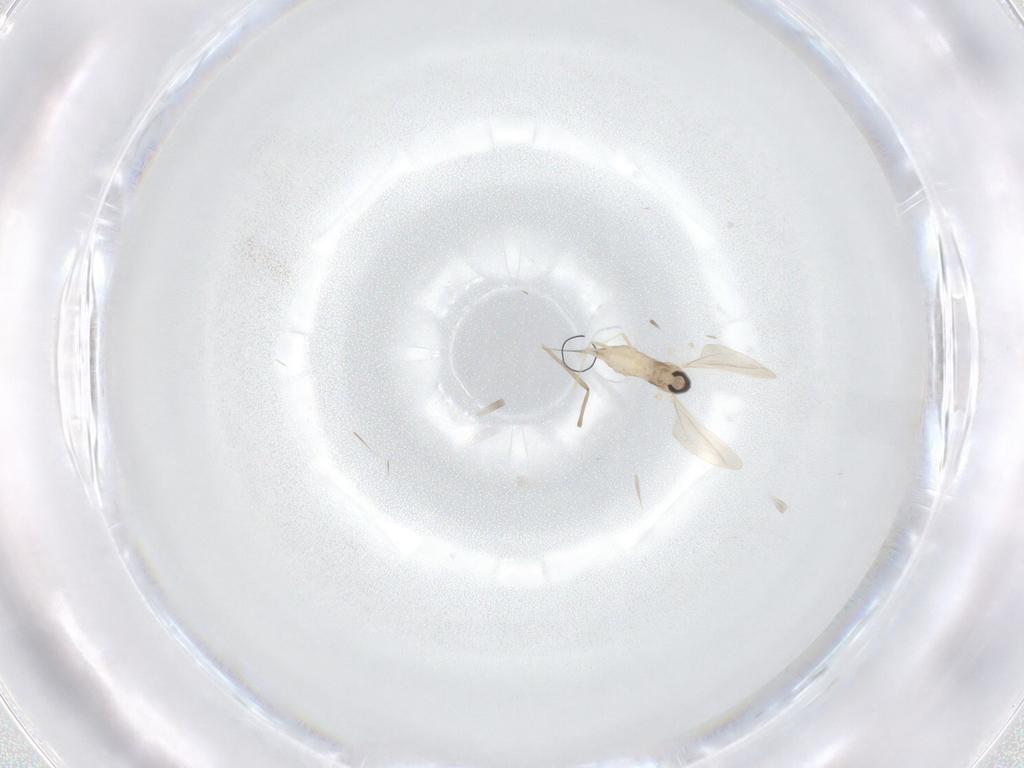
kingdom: Animalia
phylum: Arthropoda
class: Insecta
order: Diptera
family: Cecidomyiidae
